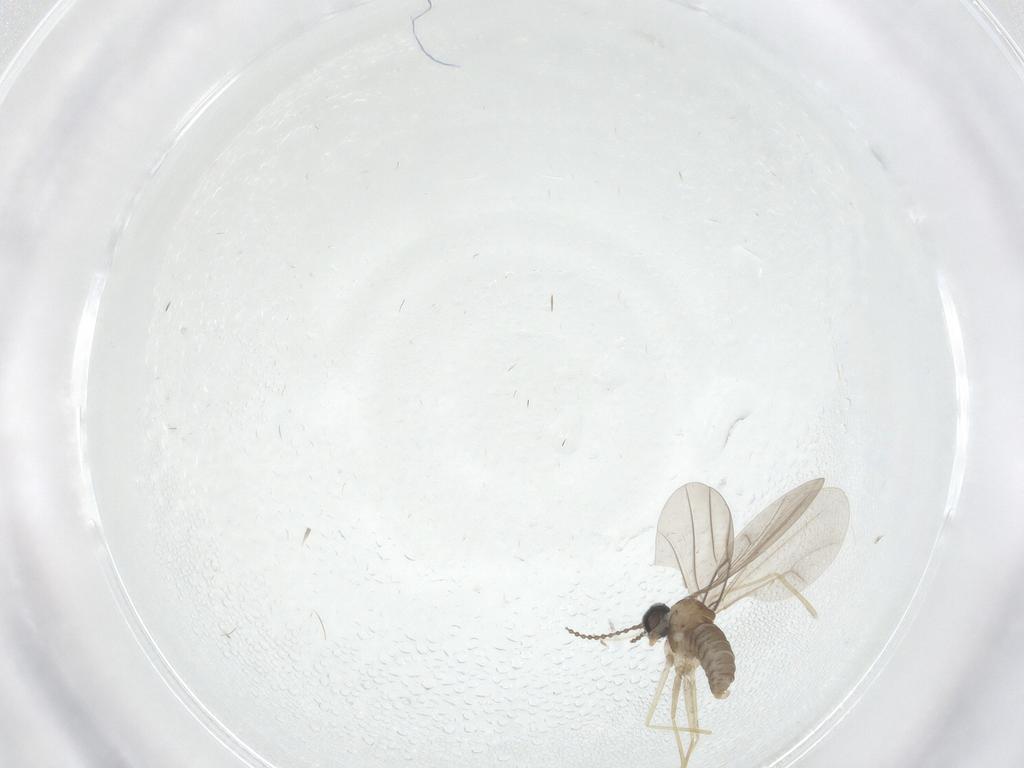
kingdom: Animalia
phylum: Arthropoda
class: Insecta
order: Diptera
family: Cecidomyiidae
